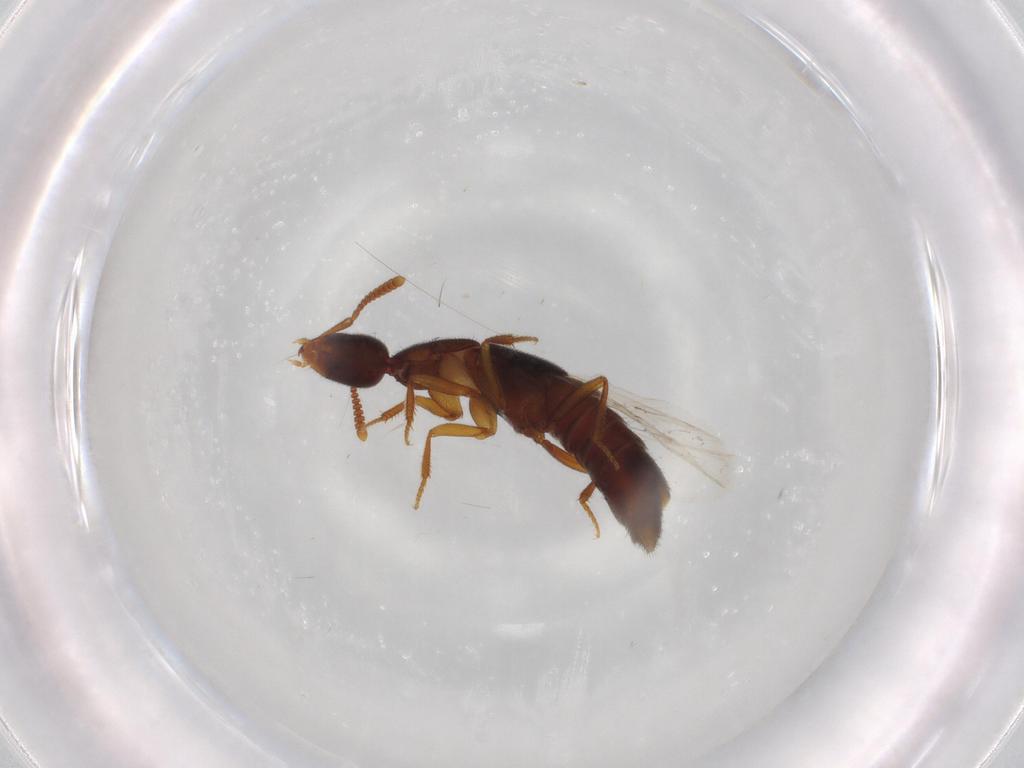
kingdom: Animalia
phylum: Arthropoda
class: Insecta
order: Coleoptera
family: Staphylinidae
